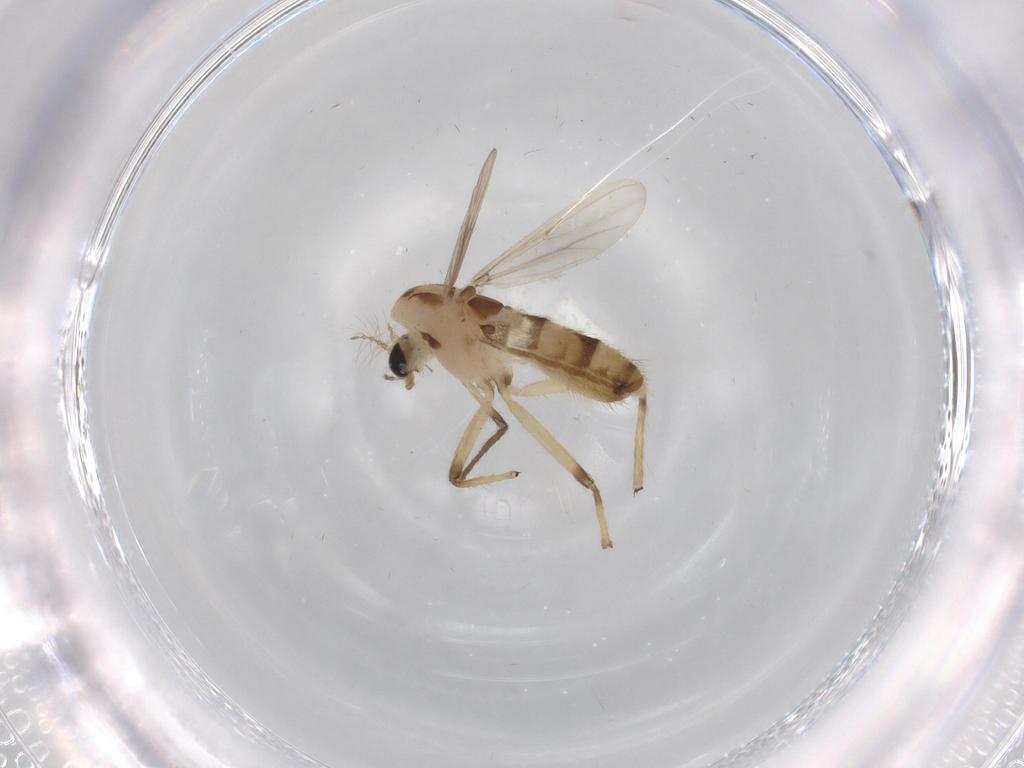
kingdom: Animalia
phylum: Arthropoda
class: Insecta
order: Diptera
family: Chironomidae
